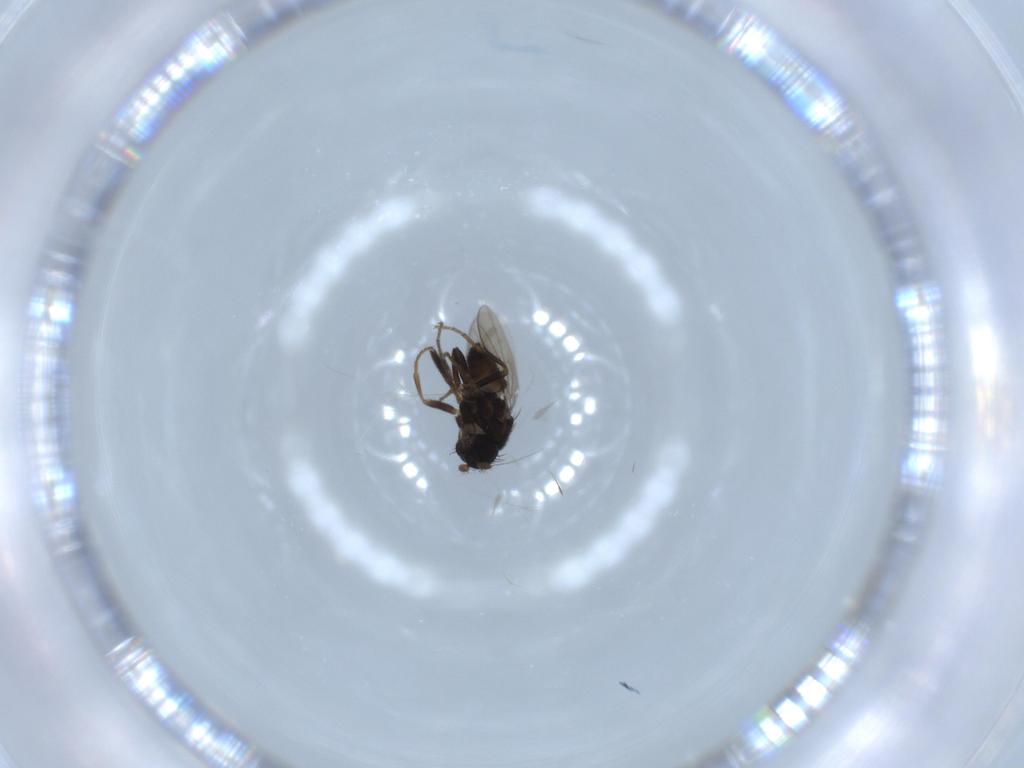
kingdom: Animalia
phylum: Arthropoda
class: Insecta
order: Diptera
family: Sphaeroceridae
